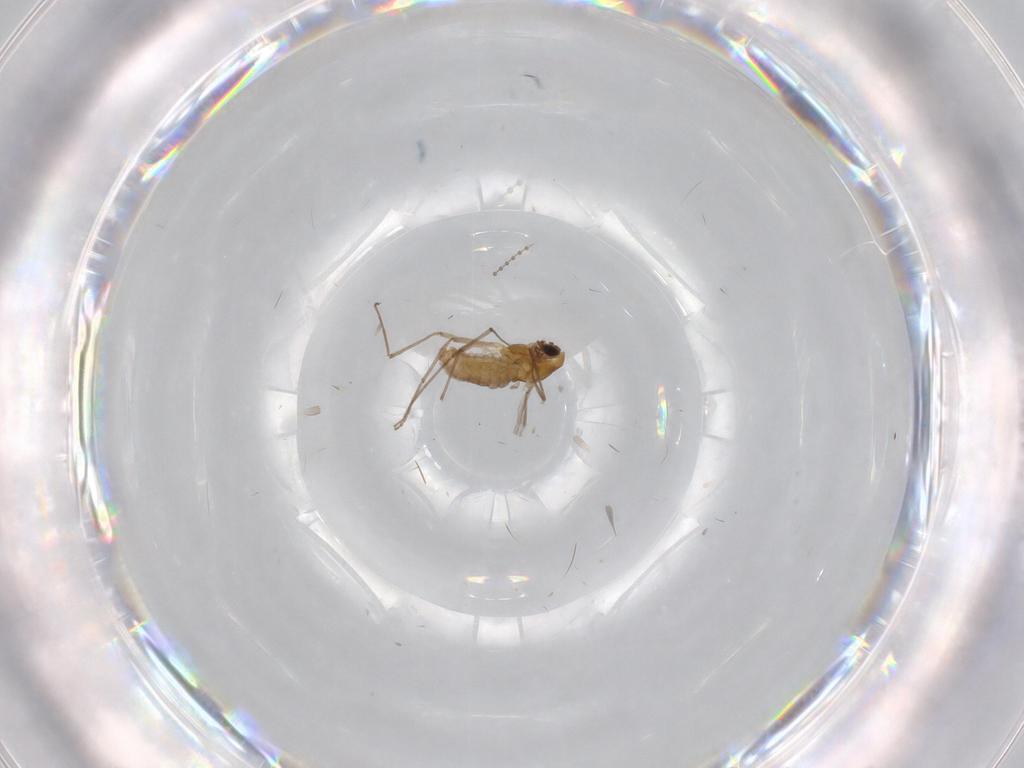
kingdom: Animalia
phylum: Arthropoda
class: Insecta
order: Diptera
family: Chironomidae
